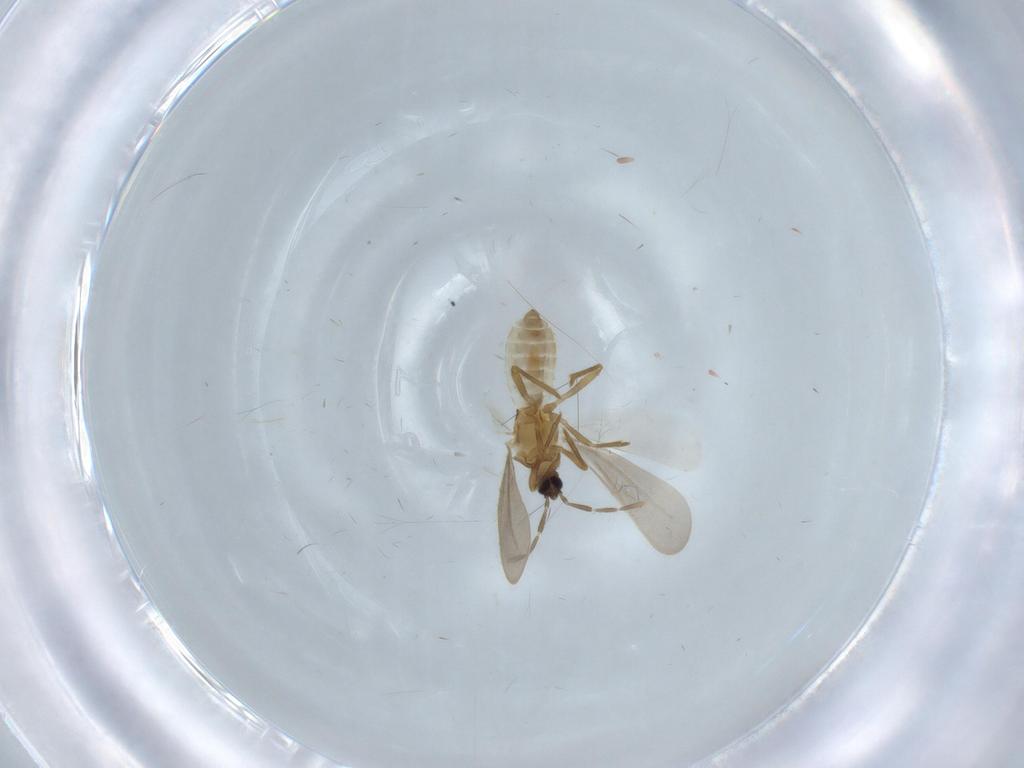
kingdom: Animalia
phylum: Arthropoda
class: Insecta
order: Hemiptera
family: Enicocephalidae
